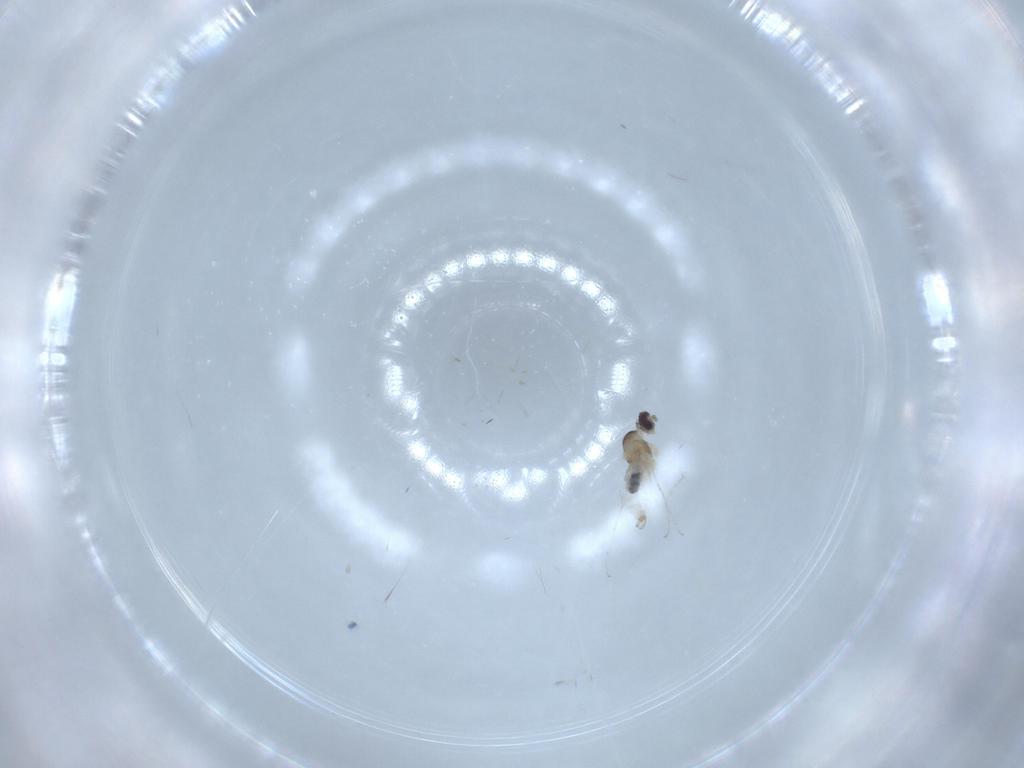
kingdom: Animalia
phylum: Arthropoda
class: Insecta
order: Diptera
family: Cecidomyiidae
